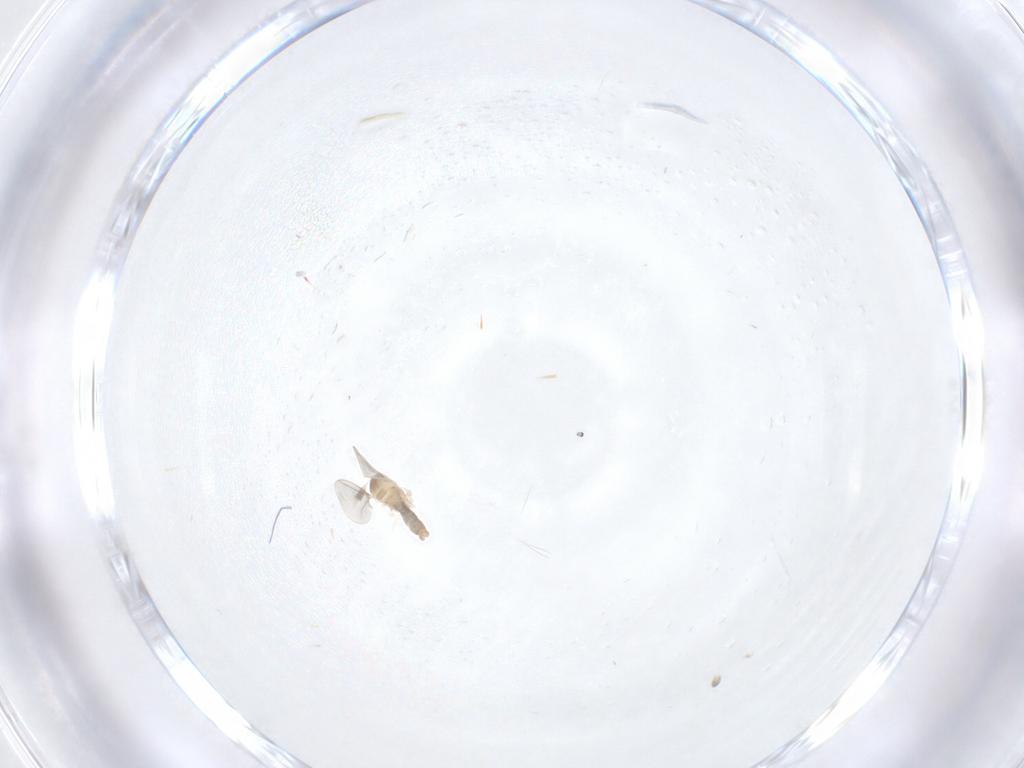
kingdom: Animalia
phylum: Arthropoda
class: Insecta
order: Diptera
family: Cecidomyiidae
